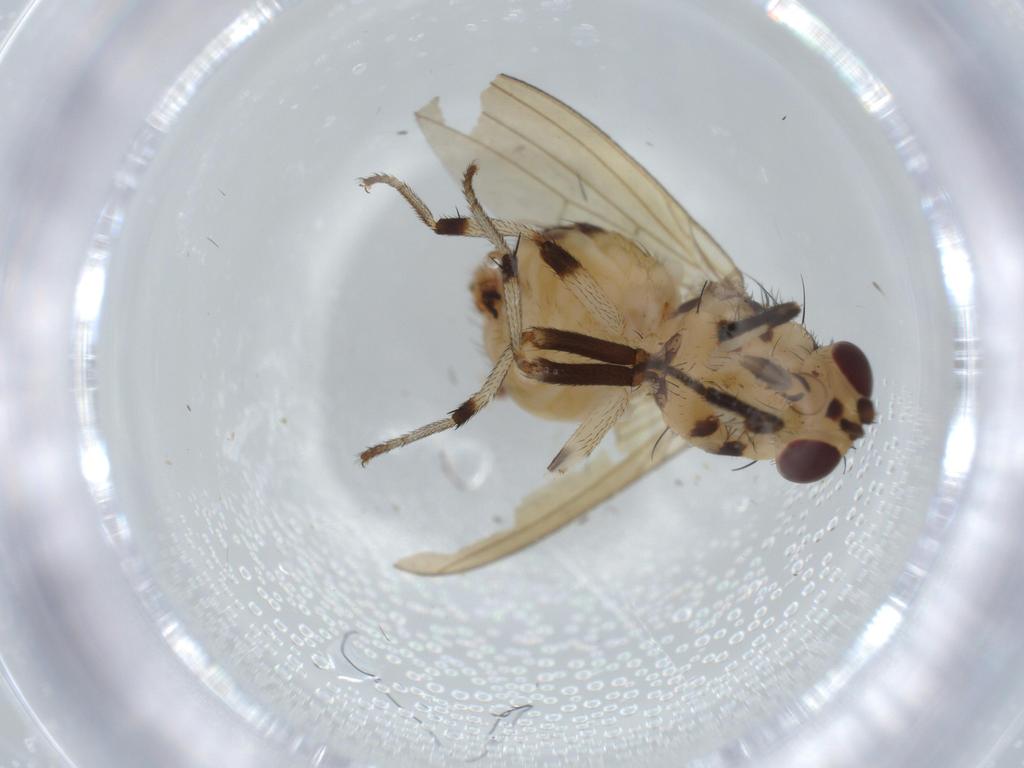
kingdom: Animalia
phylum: Arthropoda
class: Insecta
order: Diptera
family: Lauxaniidae
